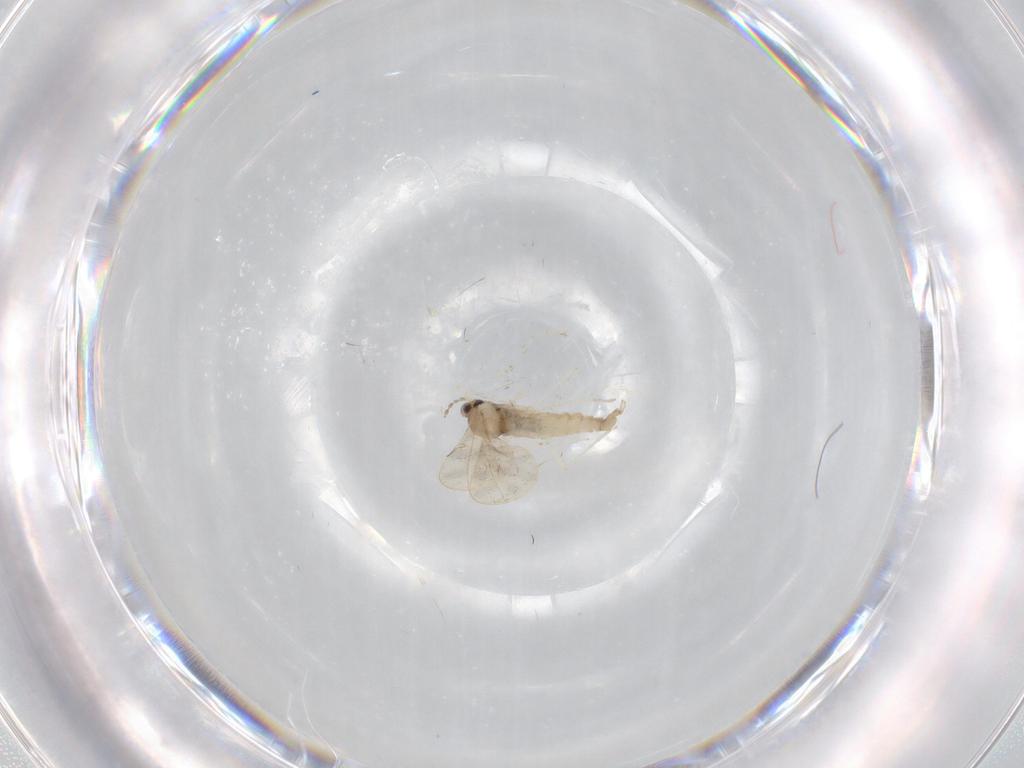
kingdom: Animalia
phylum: Arthropoda
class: Insecta
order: Diptera
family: Cecidomyiidae
